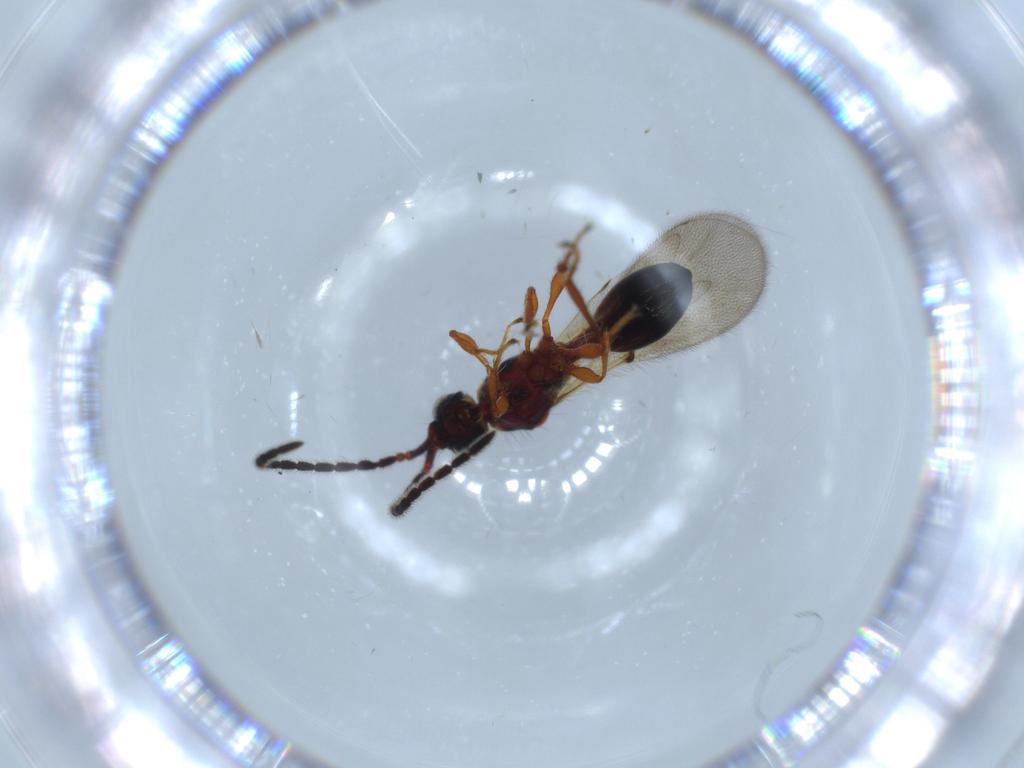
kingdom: Animalia
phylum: Arthropoda
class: Insecta
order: Hymenoptera
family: Diapriidae
